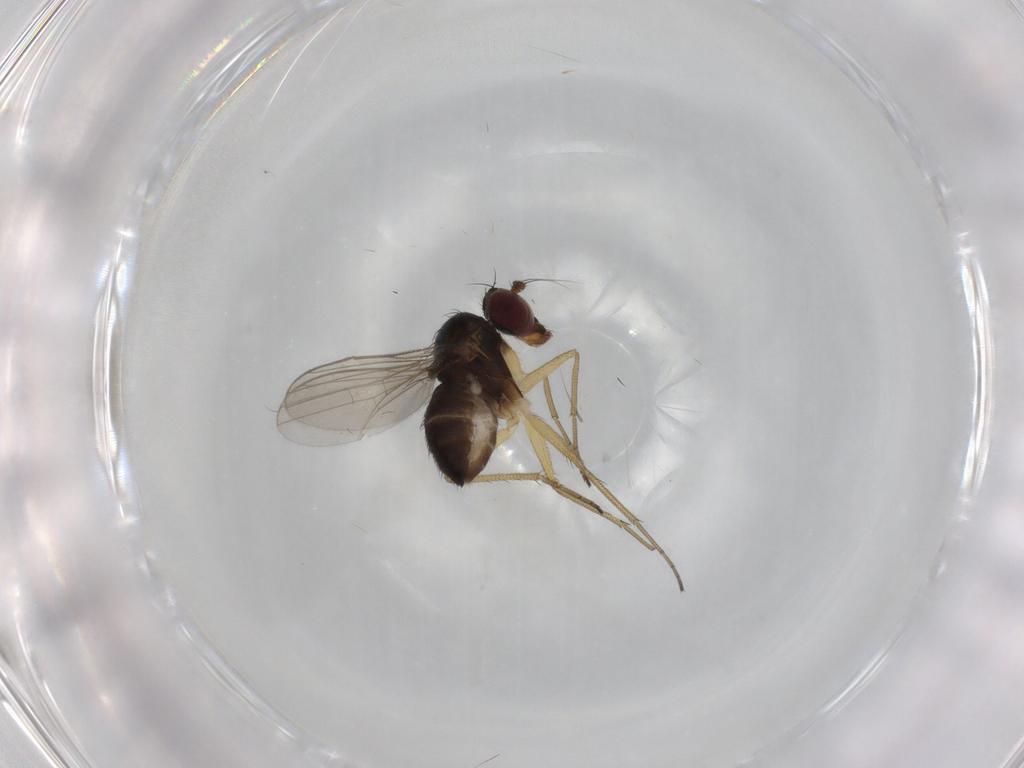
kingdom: Animalia
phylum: Arthropoda
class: Insecta
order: Diptera
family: Dolichopodidae
